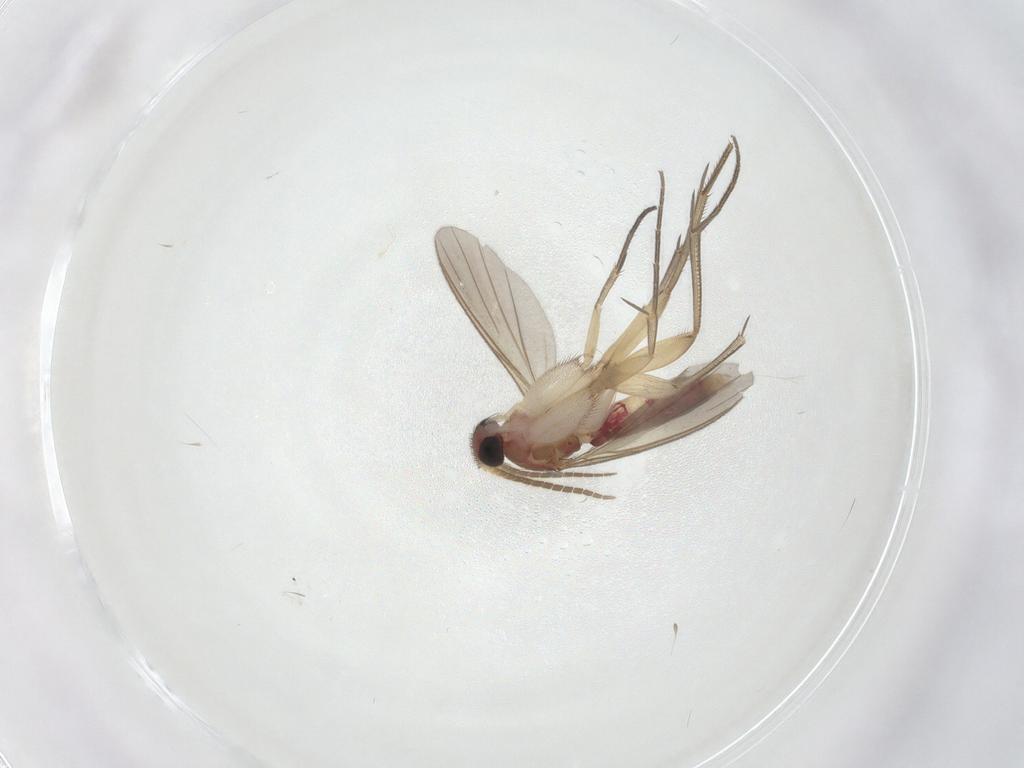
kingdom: Animalia
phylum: Arthropoda
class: Insecta
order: Diptera
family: Mycetophilidae
